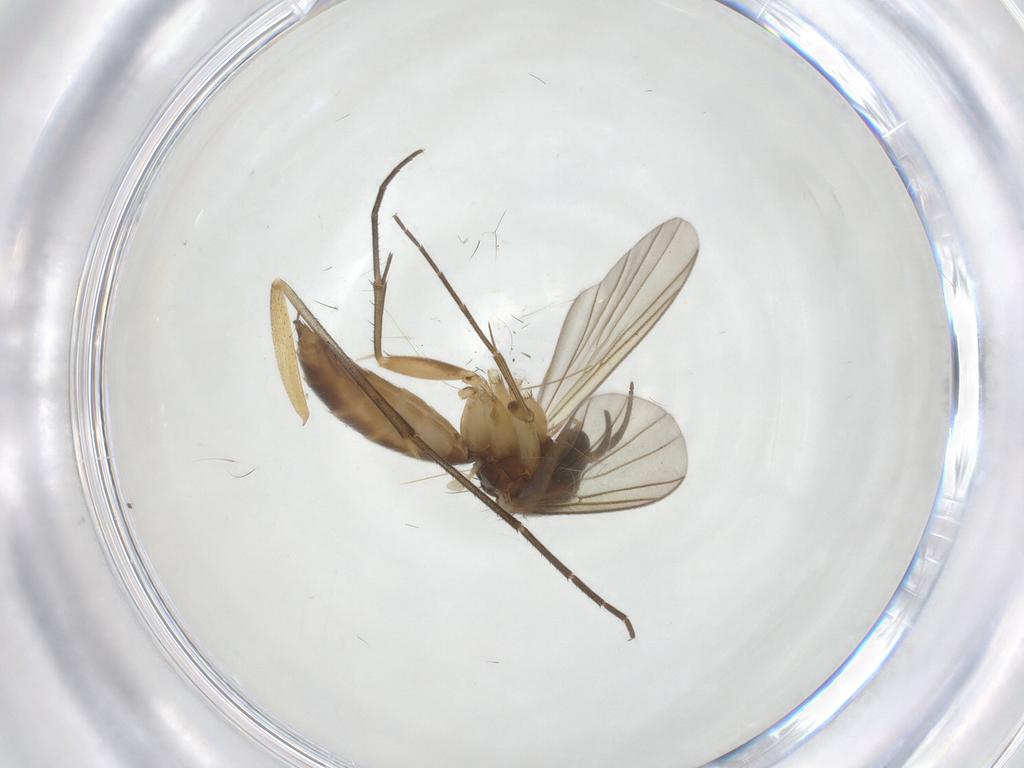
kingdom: Animalia
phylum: Arthropoda
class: Insecta
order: Diptera
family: Mycetophilidae
